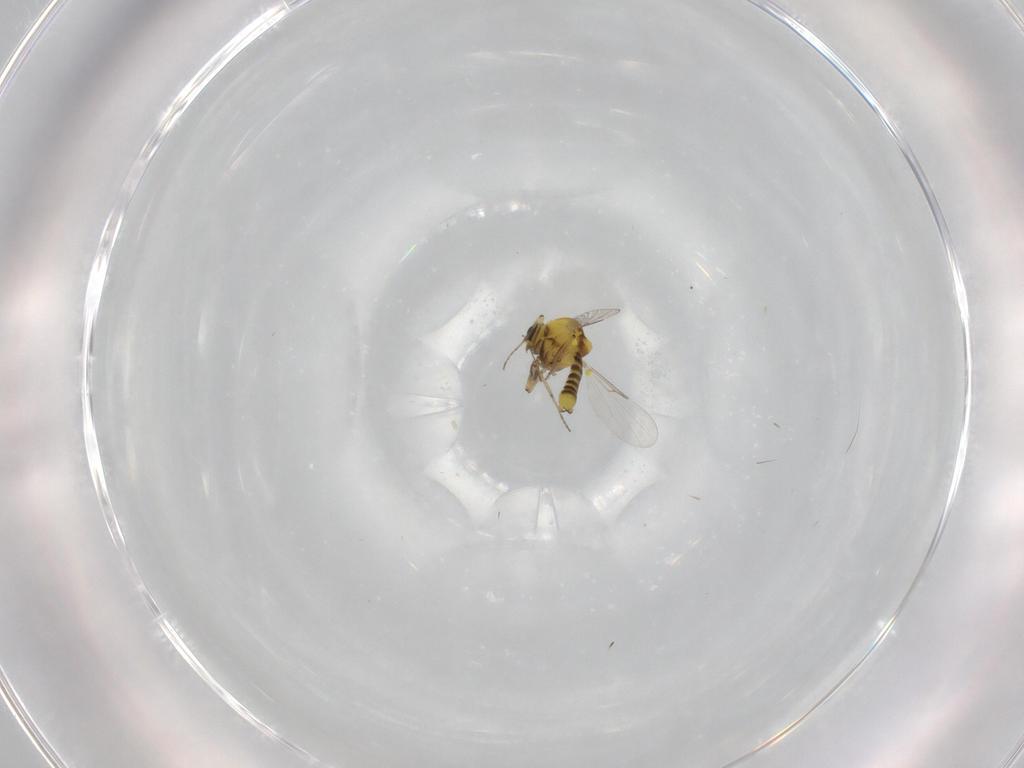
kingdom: Animalia
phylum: Arthropoda
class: Insecta
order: Diptera
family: Ceratopogonidae
